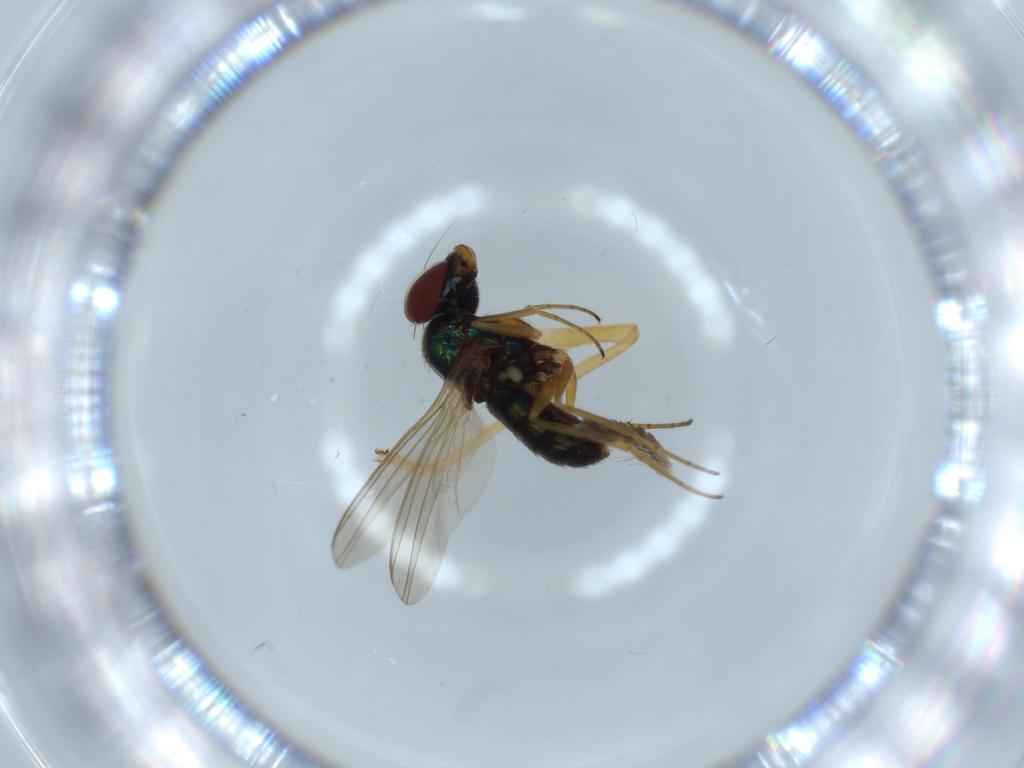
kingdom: Animalia
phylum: Arthropoda
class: Insecta
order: Diptera
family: Dolichopodidae
